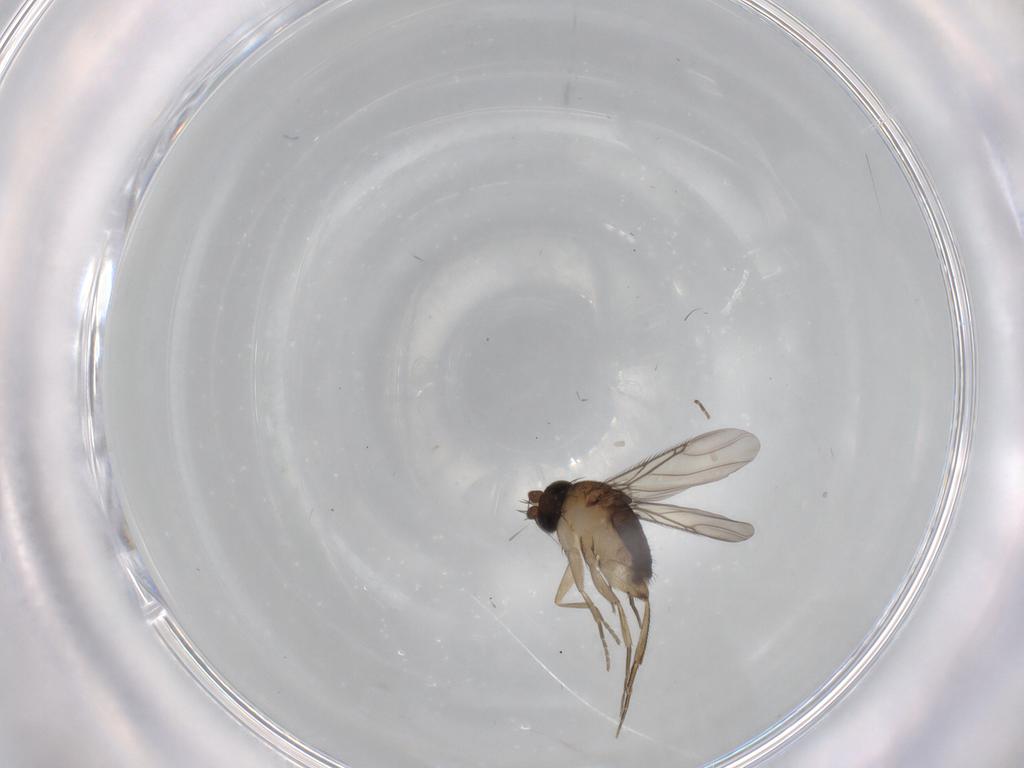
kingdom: Animalia
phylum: Arthropoda
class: Insecta
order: Diptera
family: Phoridae
